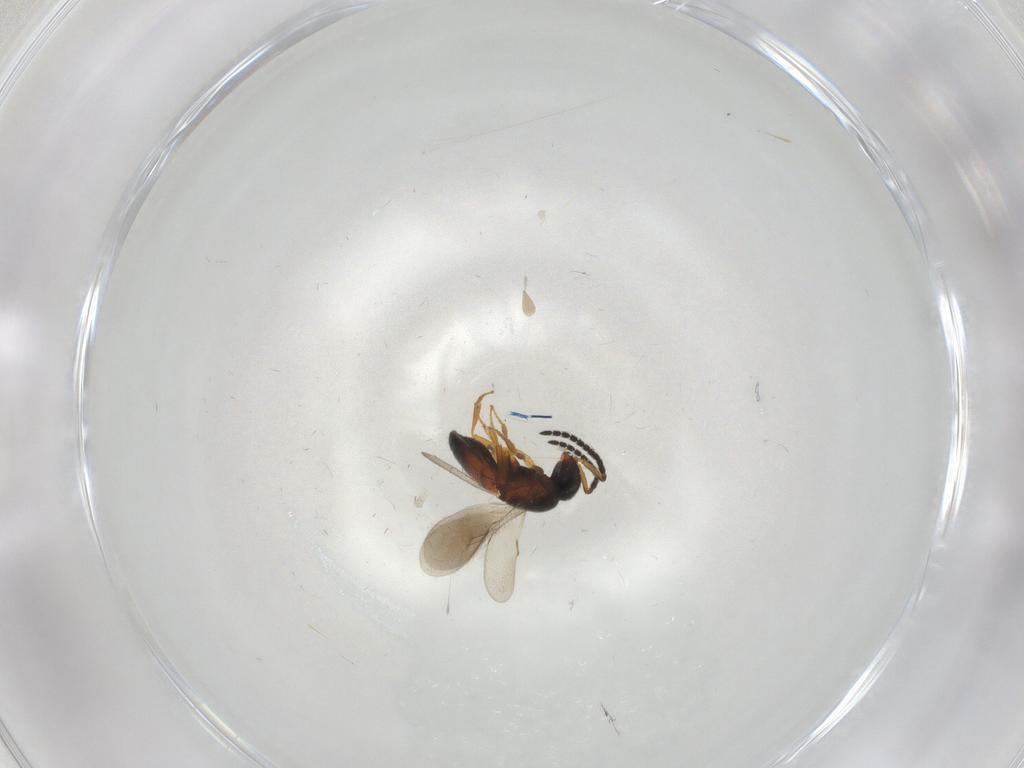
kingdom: Animalia
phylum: Arthropoda
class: Insecta
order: Hymenoptera
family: Scelionidae
